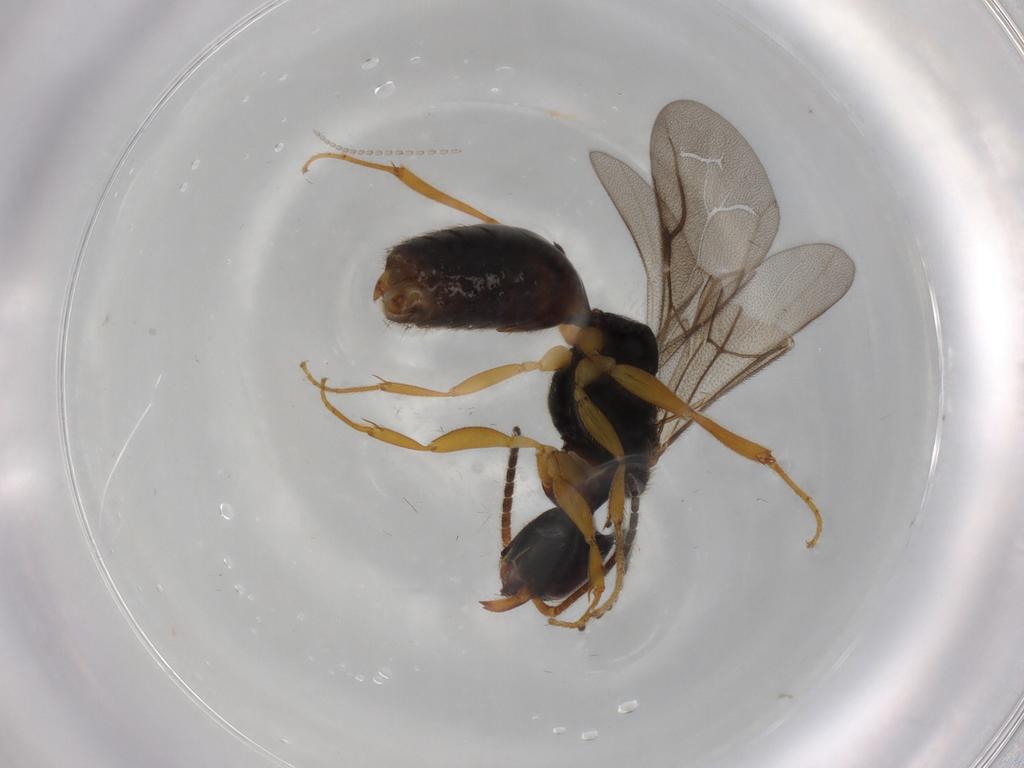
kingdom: Animalia
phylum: Arthropoda
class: Insecta
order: Hymenoptera
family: Bethylidae
